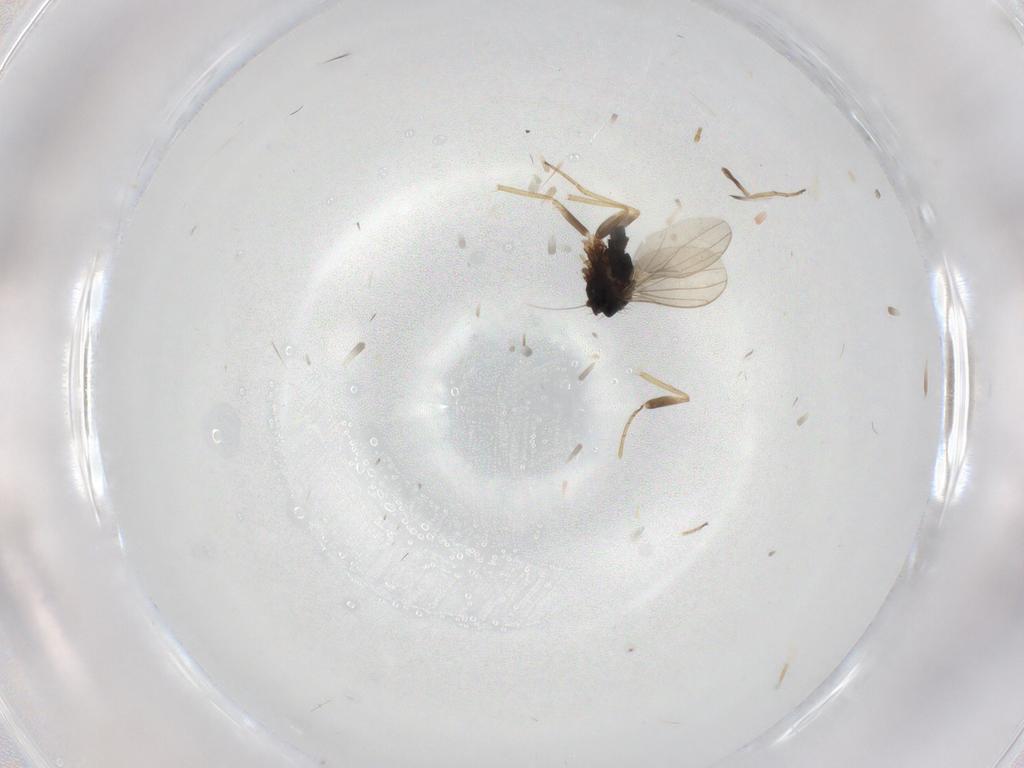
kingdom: Animalia
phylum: Arthropoda
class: Insecta
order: Diptera
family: Dolichopodidae
